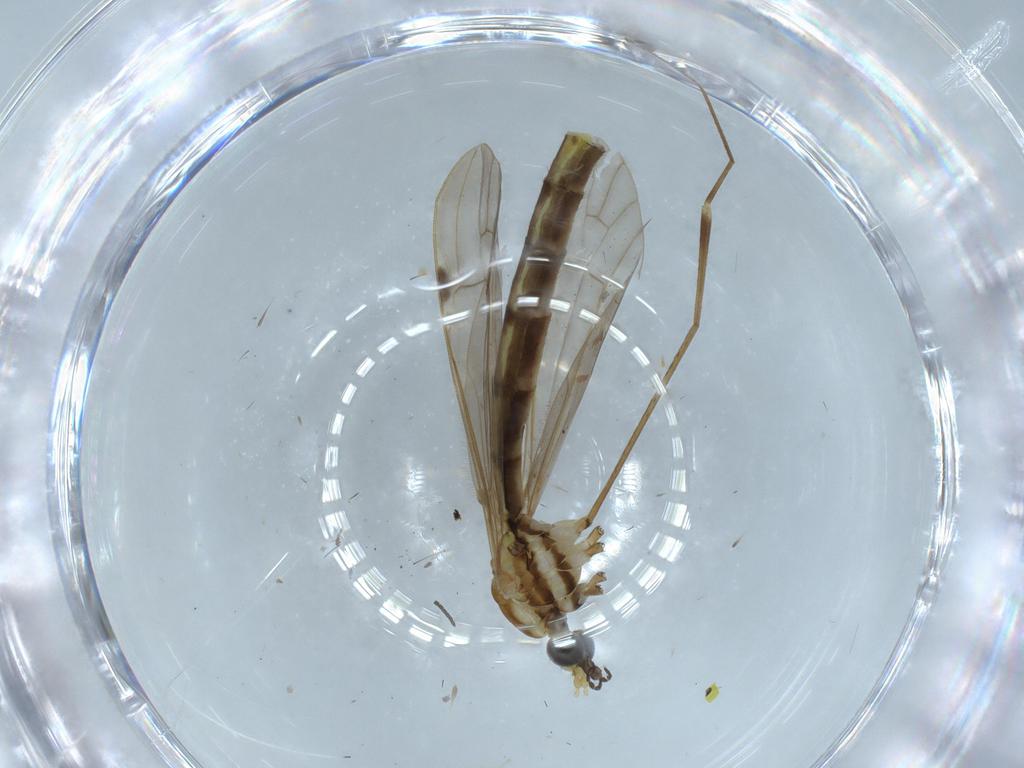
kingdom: Animalia
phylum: Arthropoda
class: Insecta
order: Diptera
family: Limoniidae
